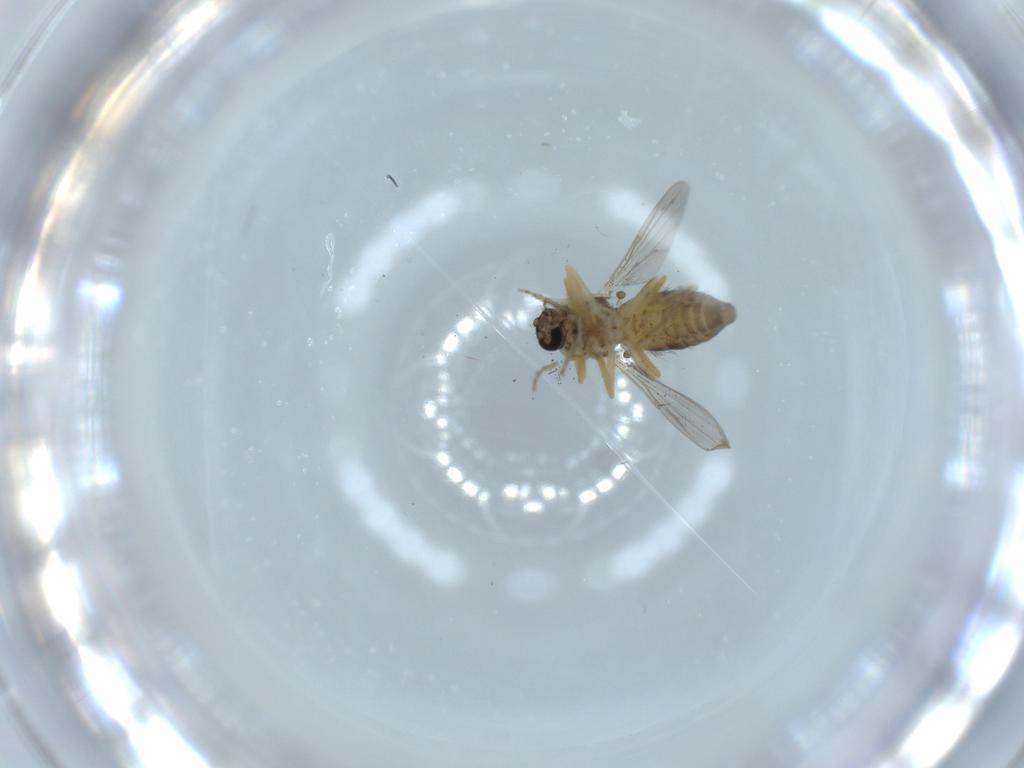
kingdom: Animalia
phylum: Arthropoda
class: Insecta
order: Diptera
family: Ceratopogonidae
